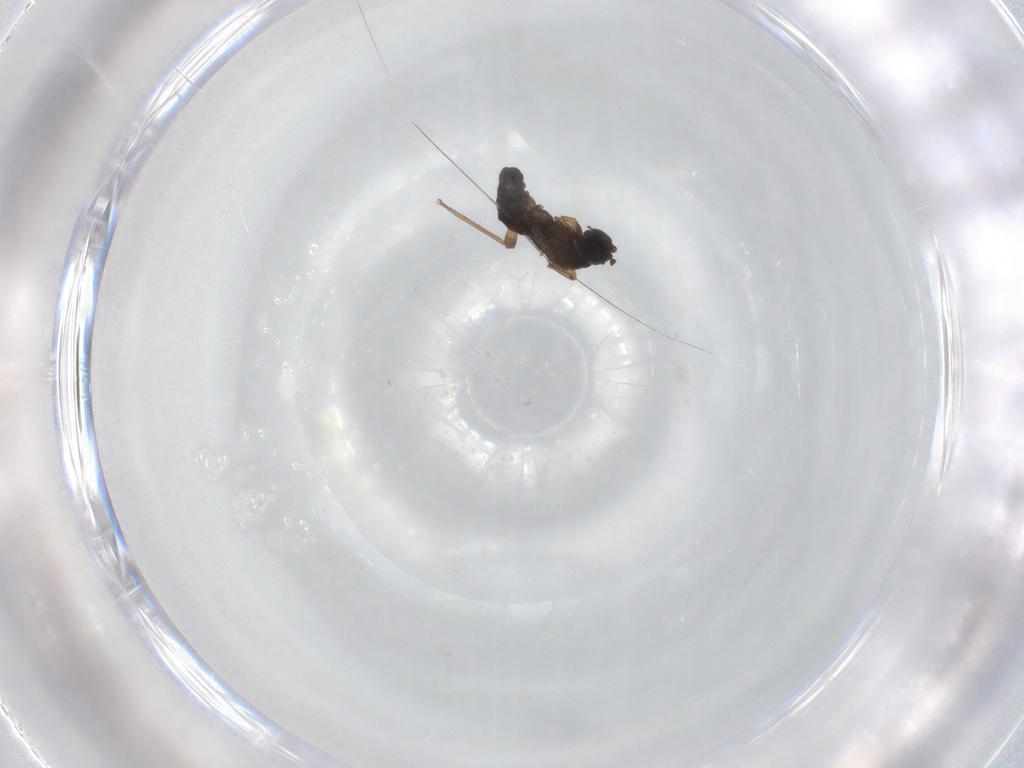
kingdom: Animalia
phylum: Arthropoda
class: Insecta
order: Diptera
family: Sciaridae
